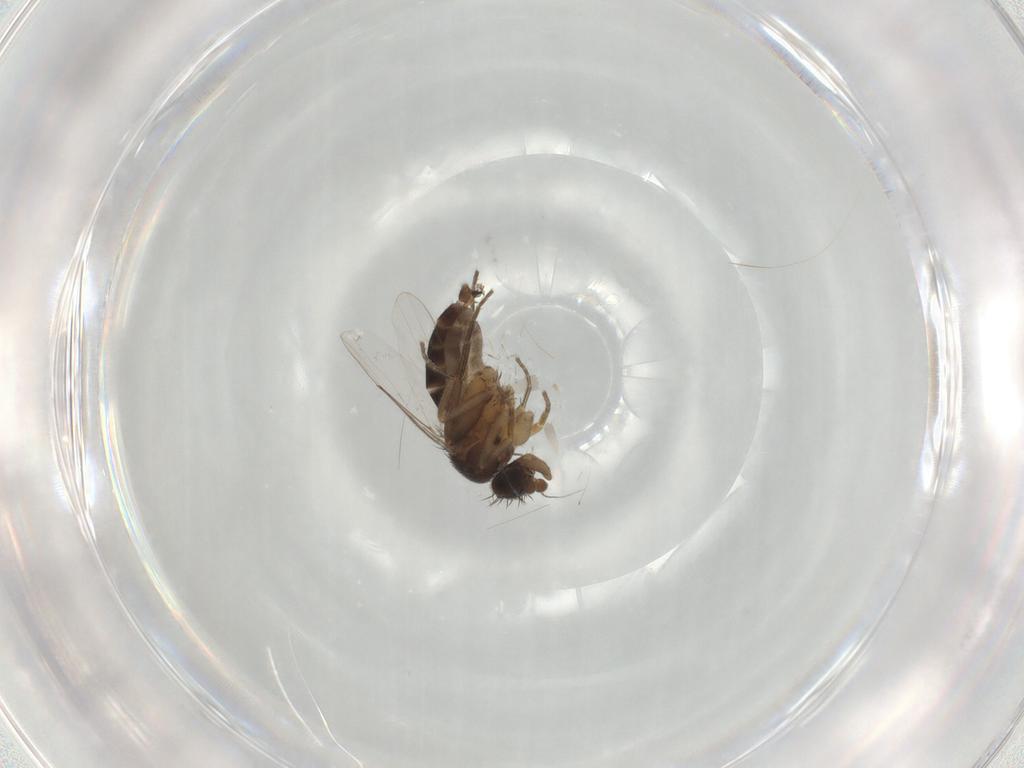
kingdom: Animalia
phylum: Arthropoda
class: Insecta
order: Diptera
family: Phoridae
